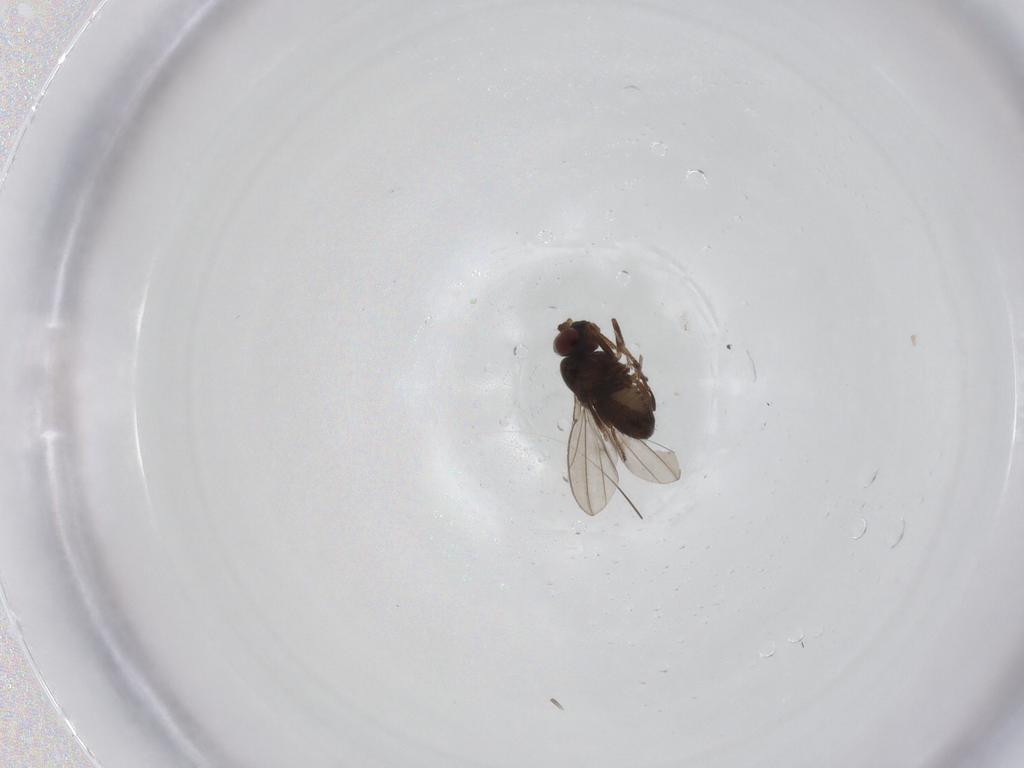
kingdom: Animalia
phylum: Arthropoda
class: Insecta
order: Diptera
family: Ephydridae
